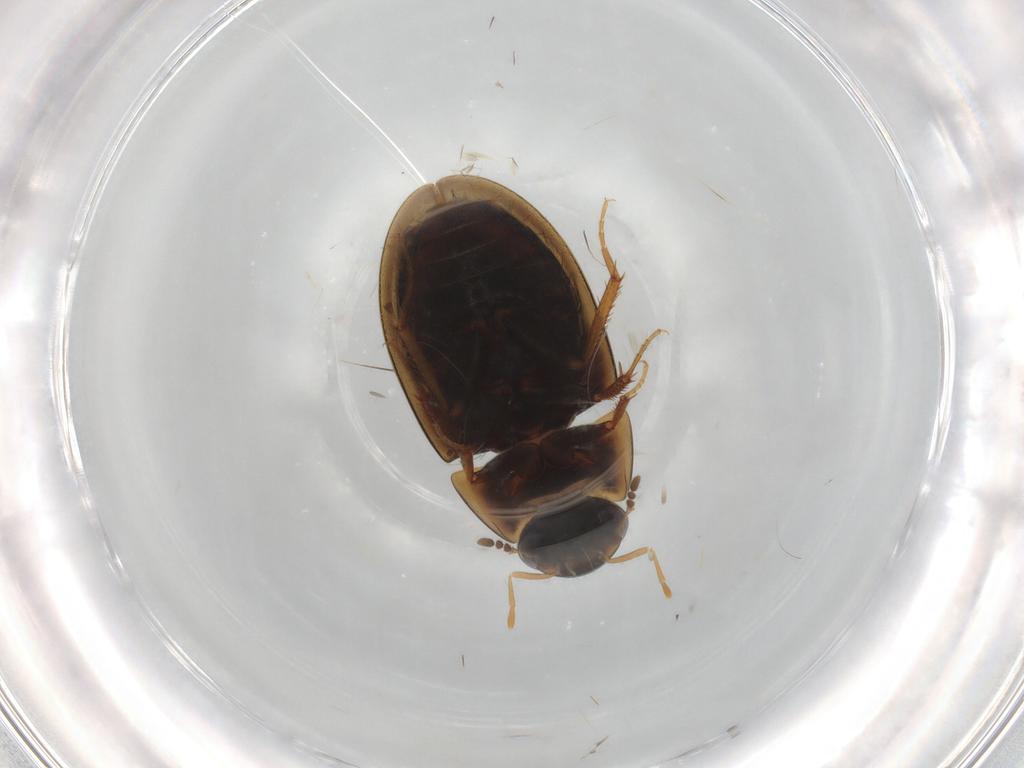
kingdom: Animalia
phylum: Arthropoda
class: Insecta
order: Coleoptera
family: Staphylinidae
